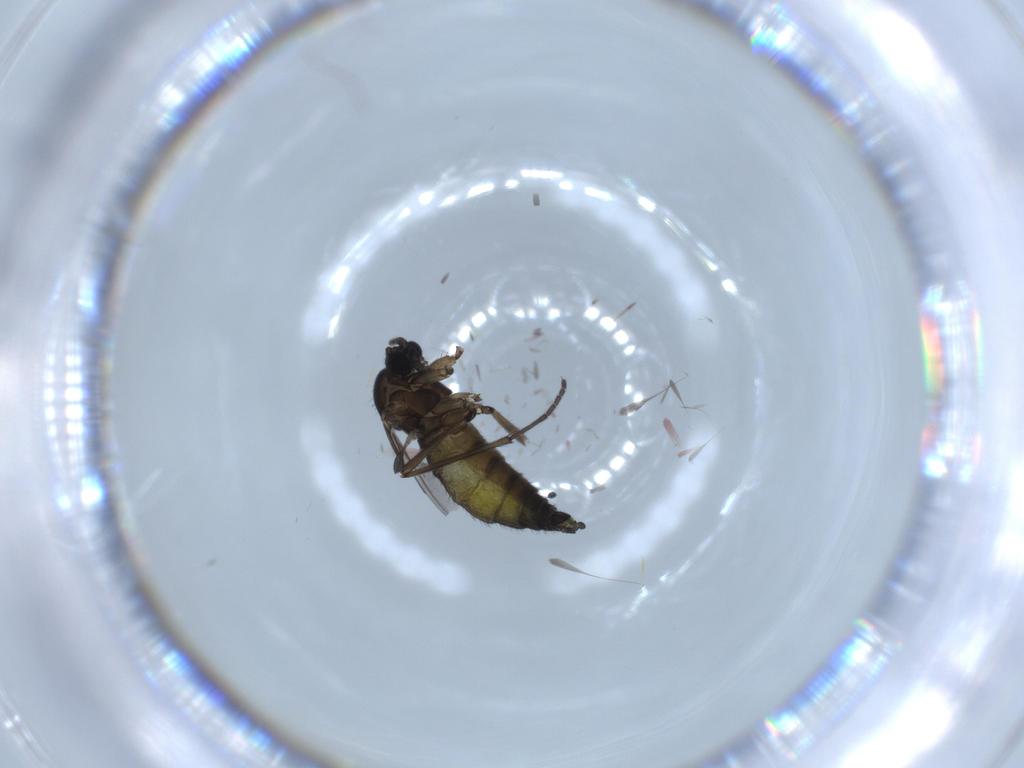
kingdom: Animalia
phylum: Arthropoda
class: Insecta
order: Diptera
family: Sciaridae
